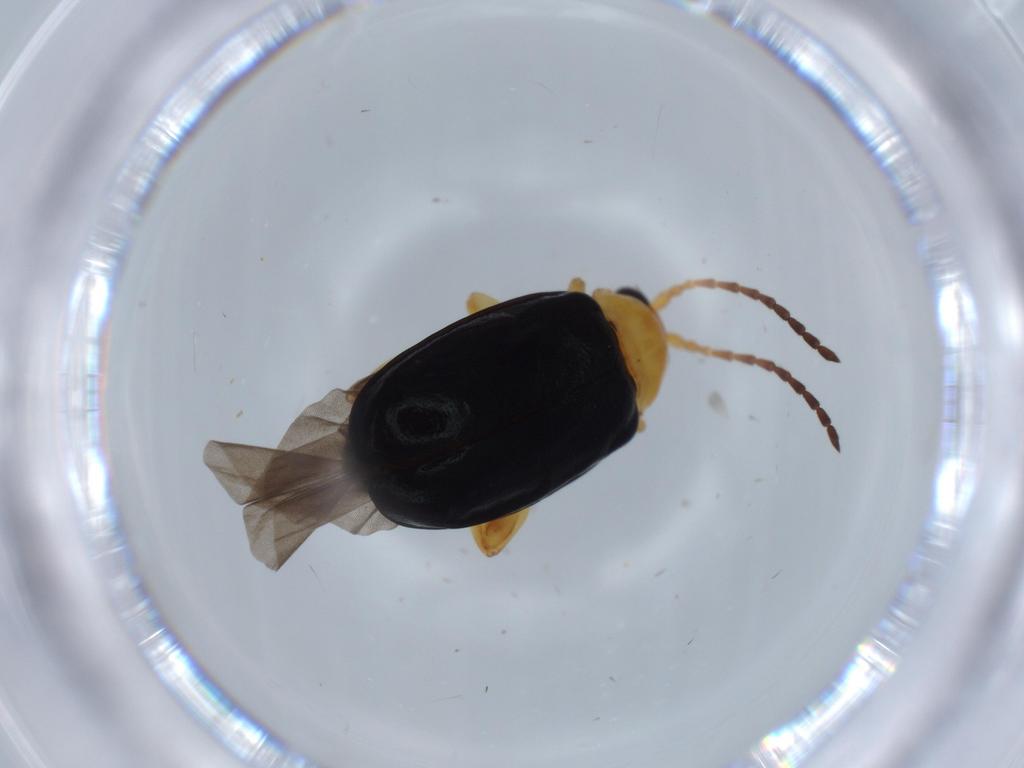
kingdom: Animalia
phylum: Arthropoda
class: Insecta
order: Coleoptera
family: Chrysomelidae
